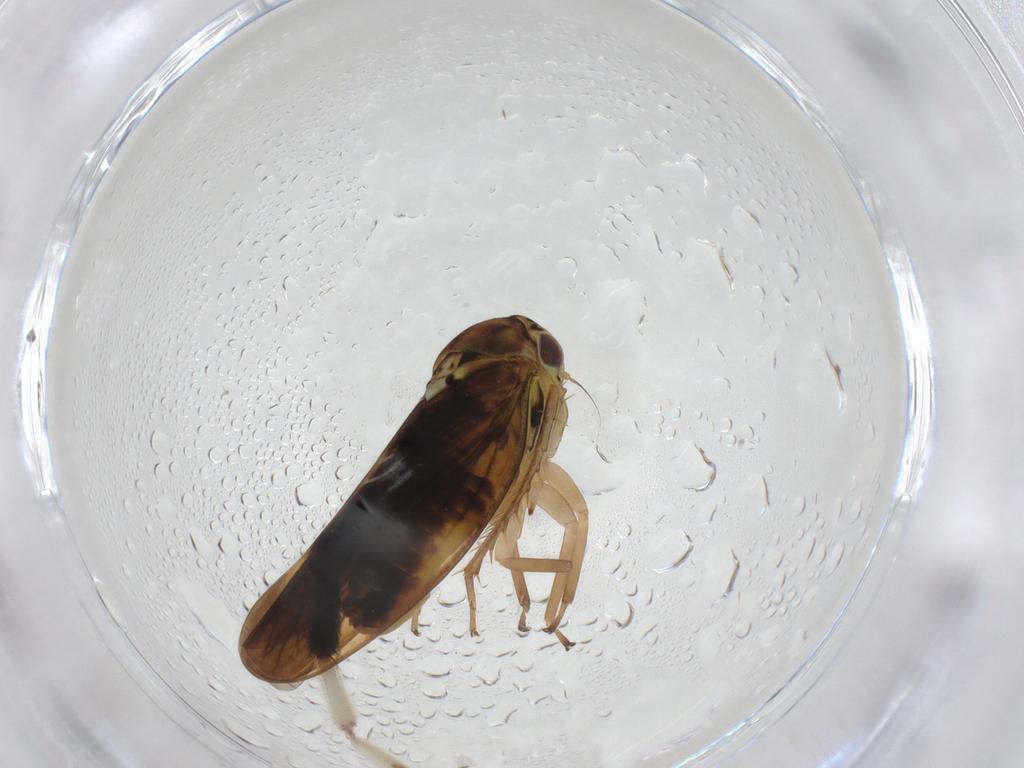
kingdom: Animalia
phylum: Arthropoda
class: Insecta
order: Hemiptera
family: Cicadellidae
